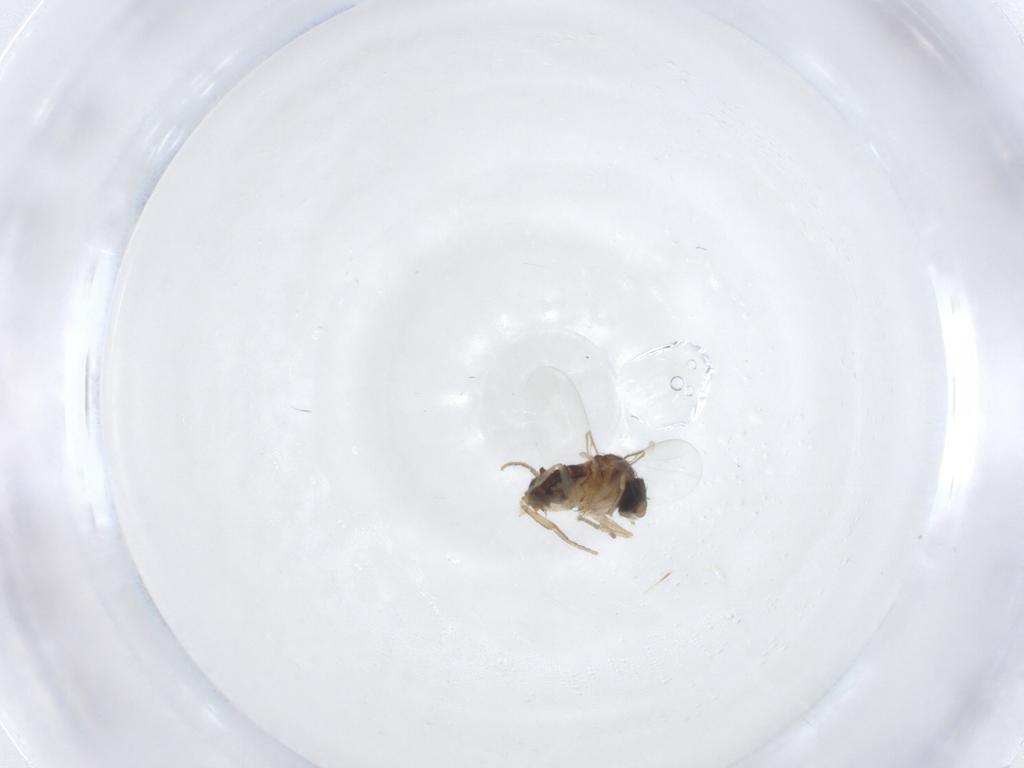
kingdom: Animalia
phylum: Arthropoda
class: Insecta
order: Diptera
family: Phoridae
